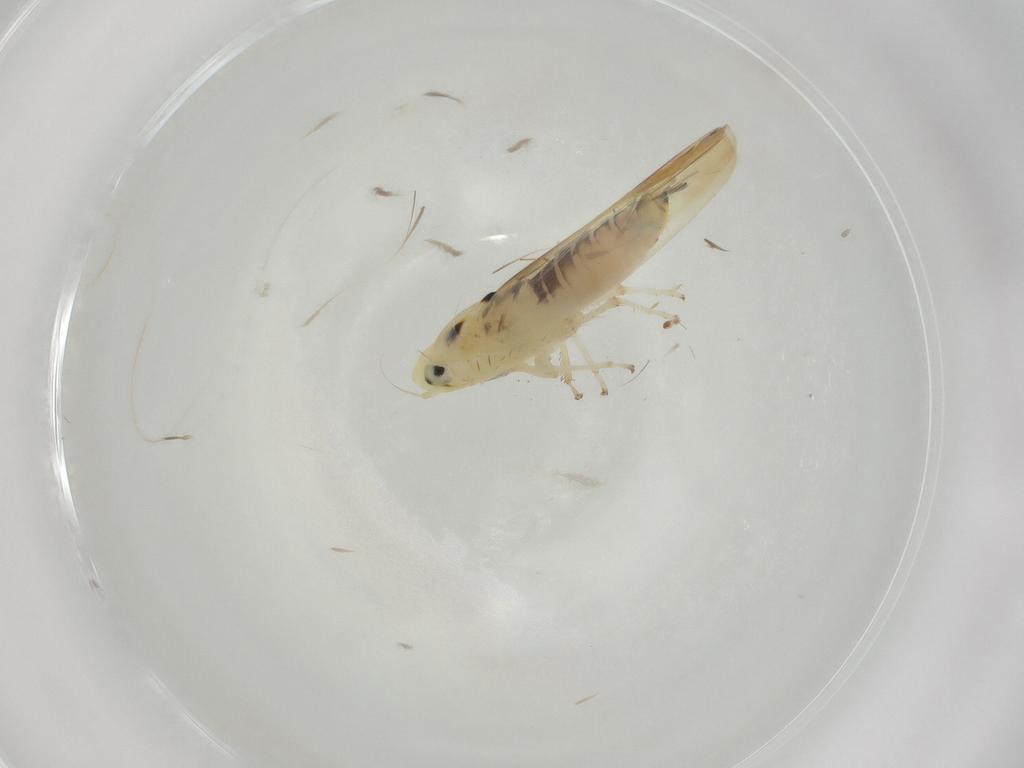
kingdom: Animalia
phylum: Arthropoda
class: Insecta
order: Hemiptera
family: Cicadellidae
